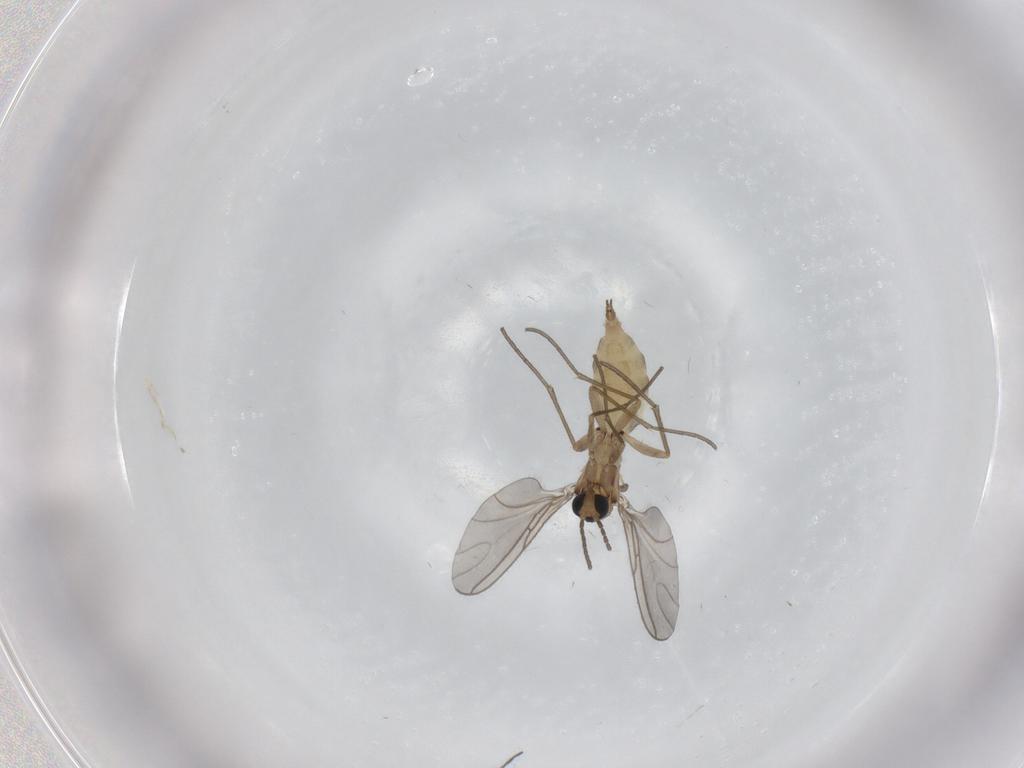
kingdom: Animalia
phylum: Arthropoda
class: Insecta
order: Diptera
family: Sciaridae
